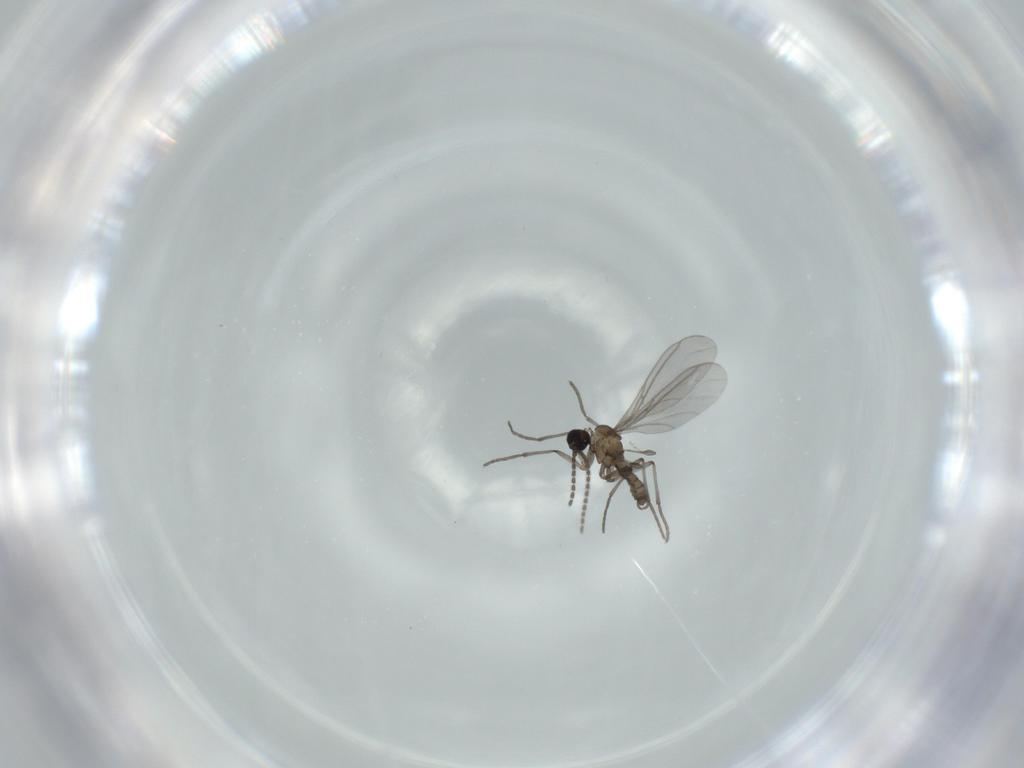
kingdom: Animalia
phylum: Arthropoda
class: Insecta
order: Diptera
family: Sciaridae
